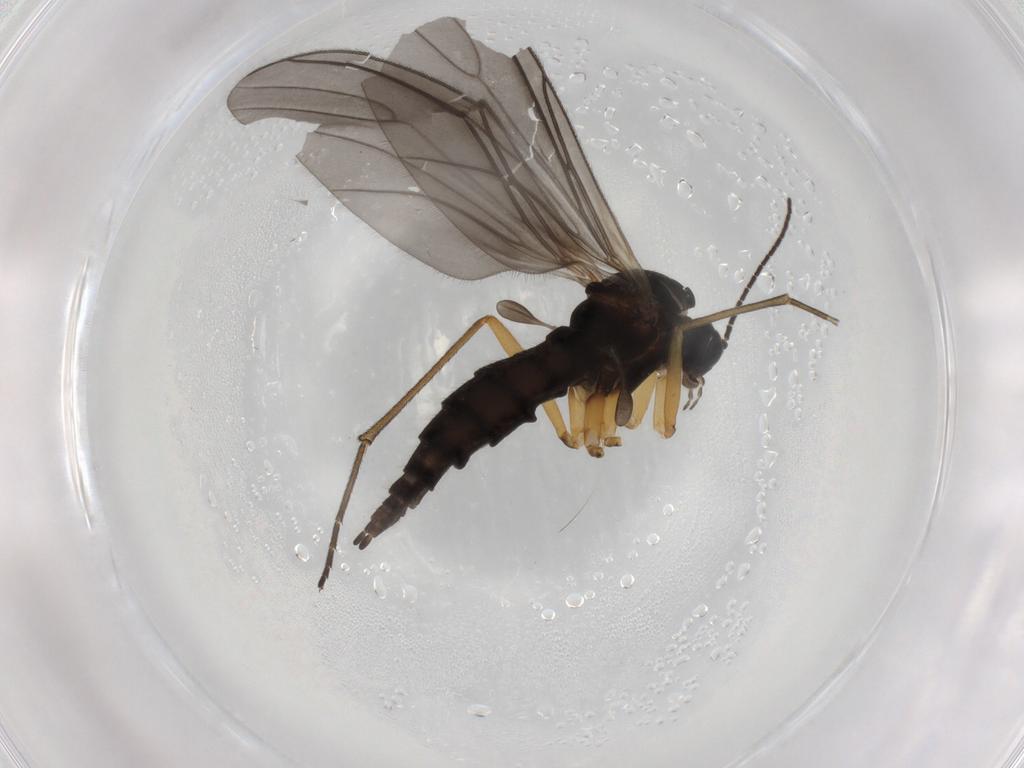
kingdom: Animalia
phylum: Arthropoda
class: Insecta
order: Diptera
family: Sciaridae
